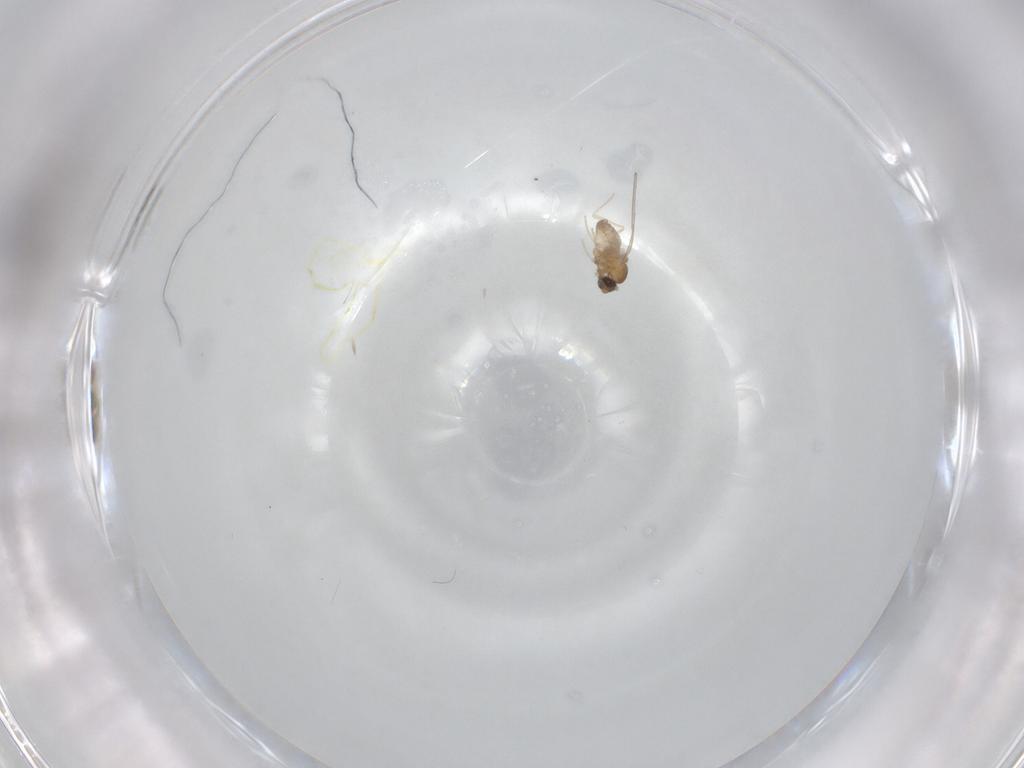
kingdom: Animalia
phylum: Arthropoda
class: Insecta
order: Diptera
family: Cecidomyiidae
